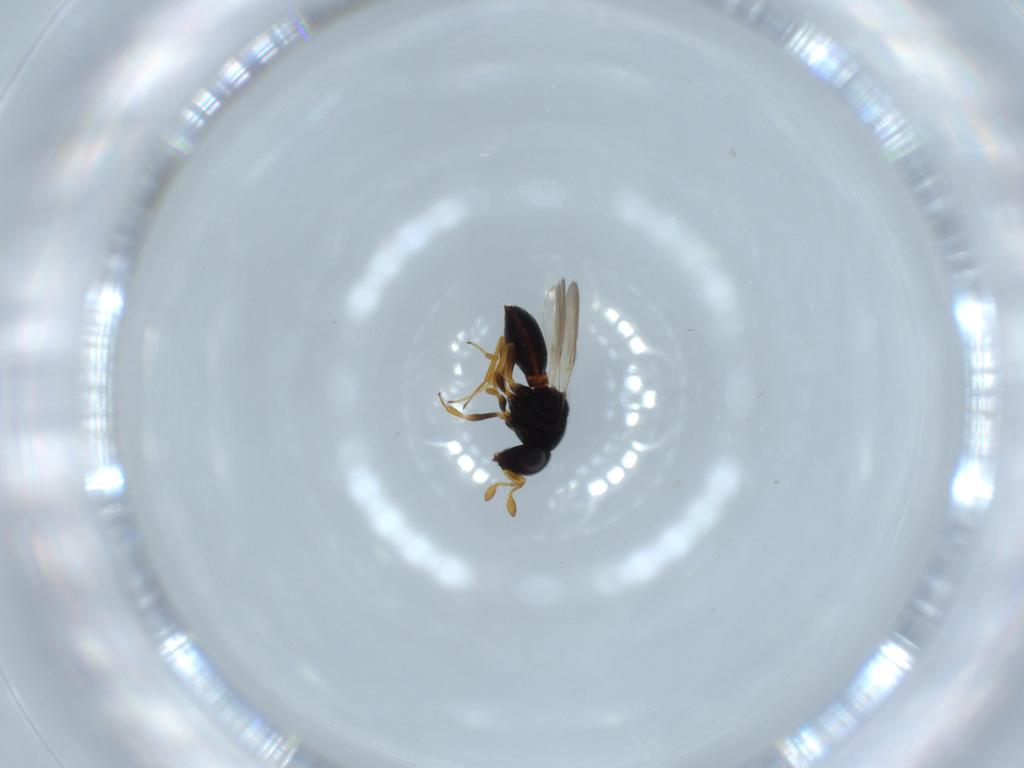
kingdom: Animalia
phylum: Arthropoda
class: Insecta
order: Hymenoptera
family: Scelionidae
